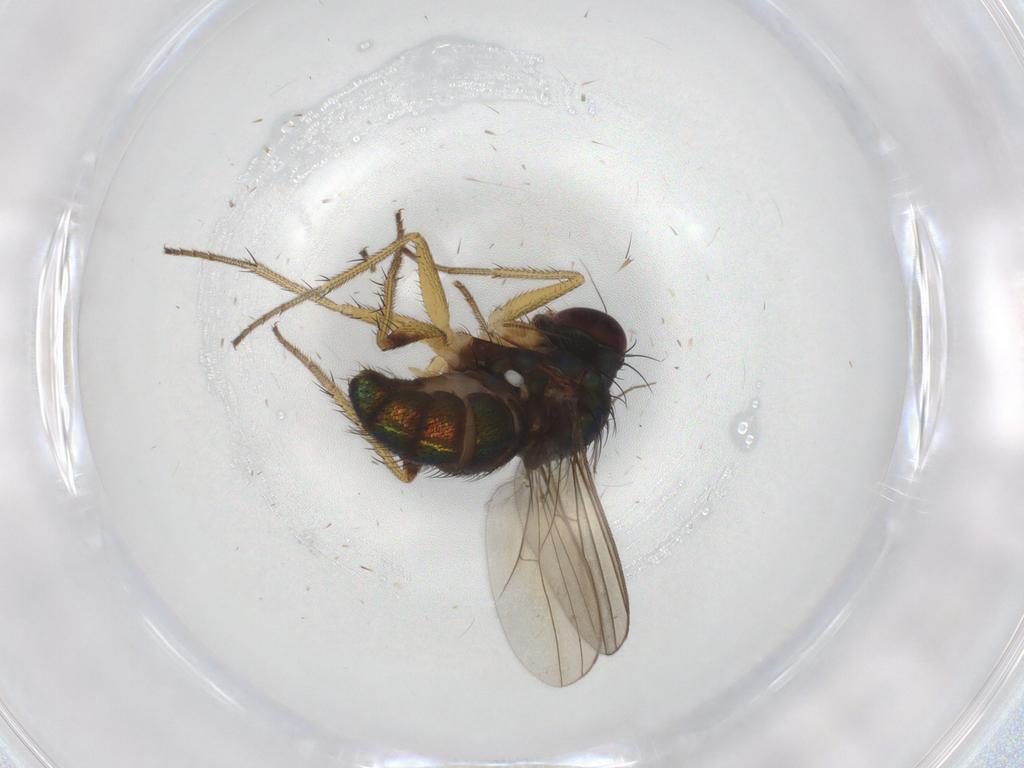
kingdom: Animalia
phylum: Arthropoda
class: Insecta
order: Diptera
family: Dolichopodidae
